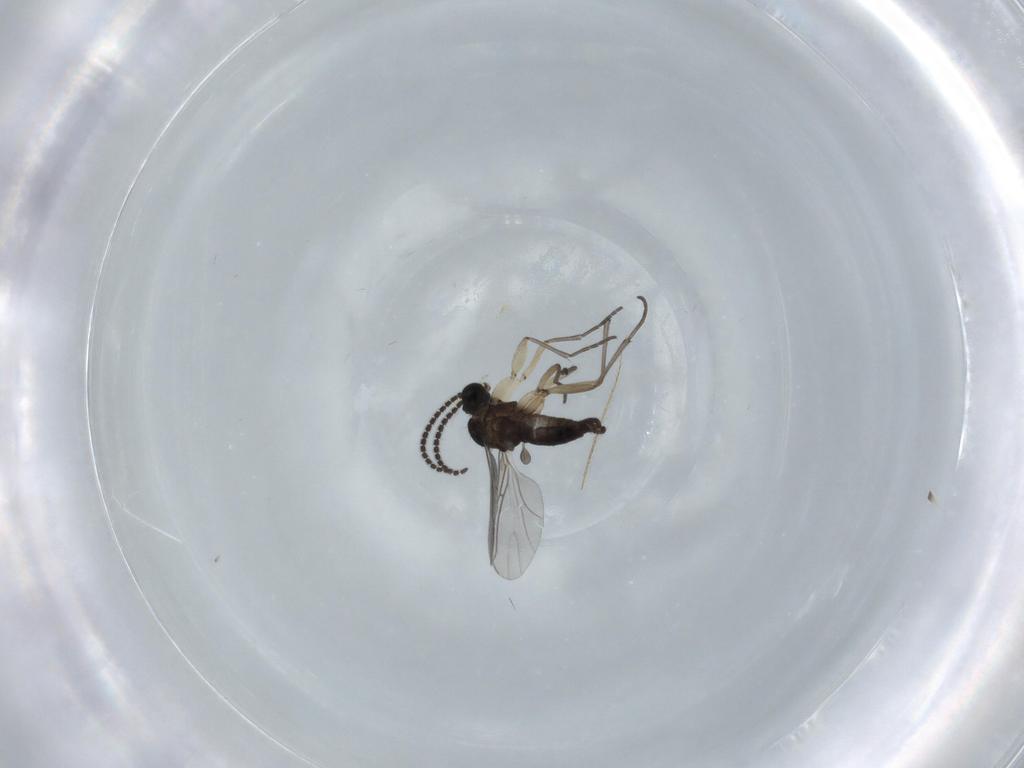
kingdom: Animalia
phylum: Arthropoda
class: Insecta
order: Diptera
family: Sciaridae
